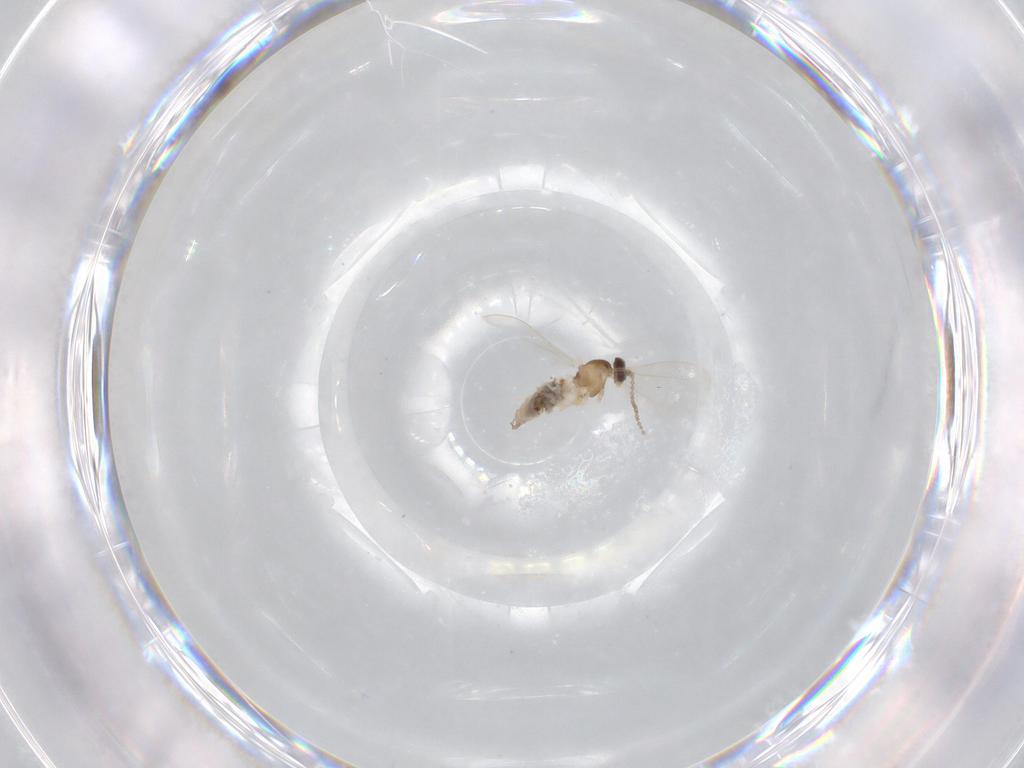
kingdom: Animalia
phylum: Arthropoda
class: Insecta
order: Diptera
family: Cecidomyiidae
